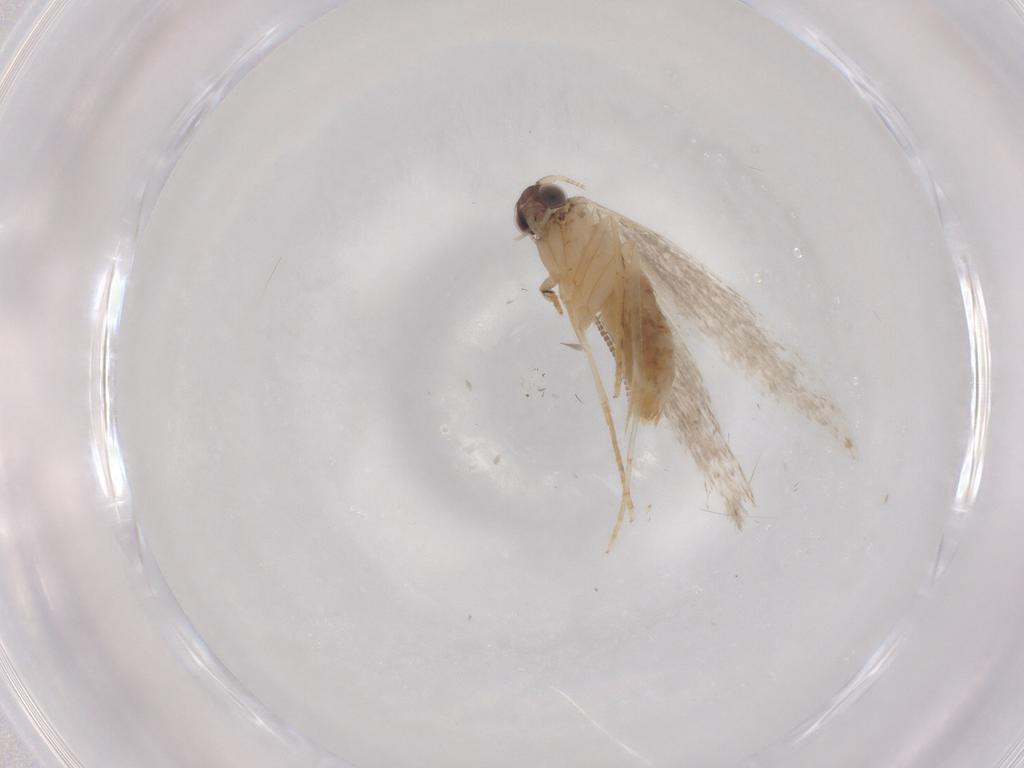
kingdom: Animalia
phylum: Arthropoda
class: Insecta
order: Lepidoptera
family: Tineidae
